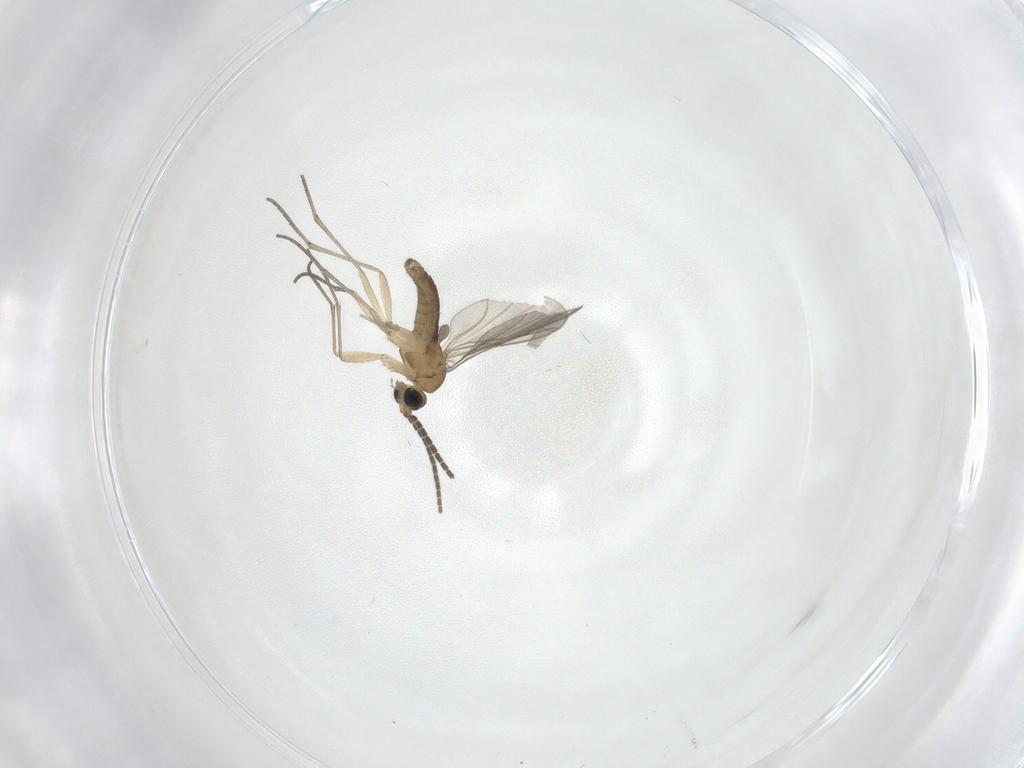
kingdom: Animalia
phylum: Arthropoda
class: Insecta
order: Diptera
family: Sciaridae
